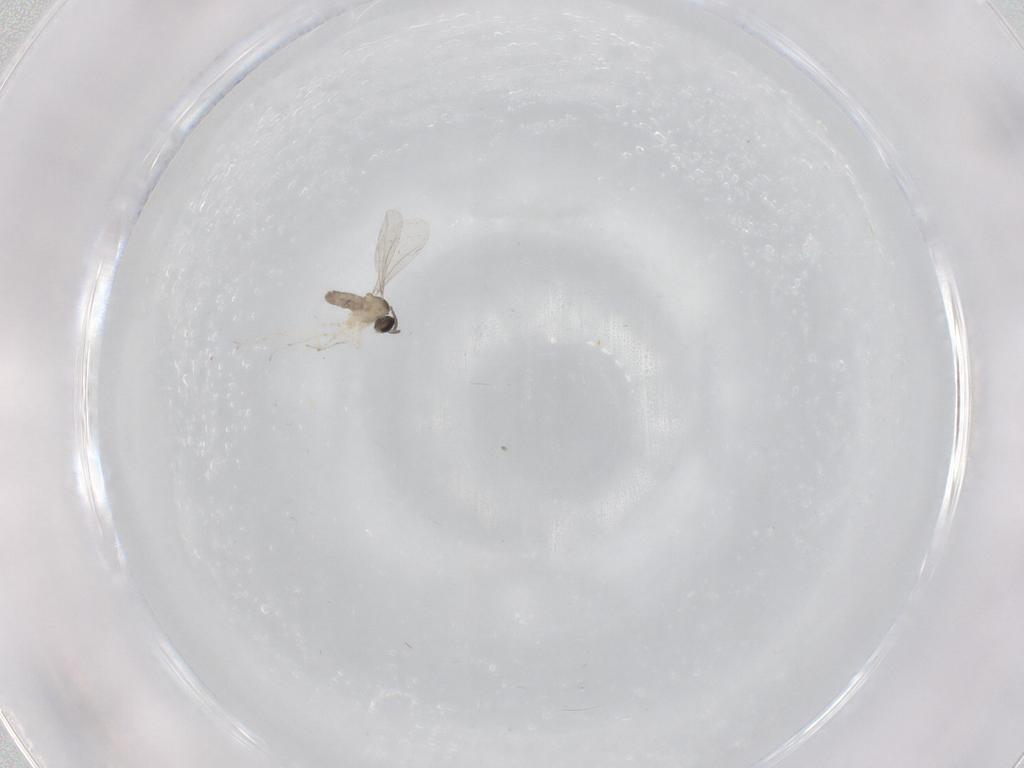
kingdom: Animalia
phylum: Arthropoda
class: Insecta
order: Diptera
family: Cecidomyiidae
